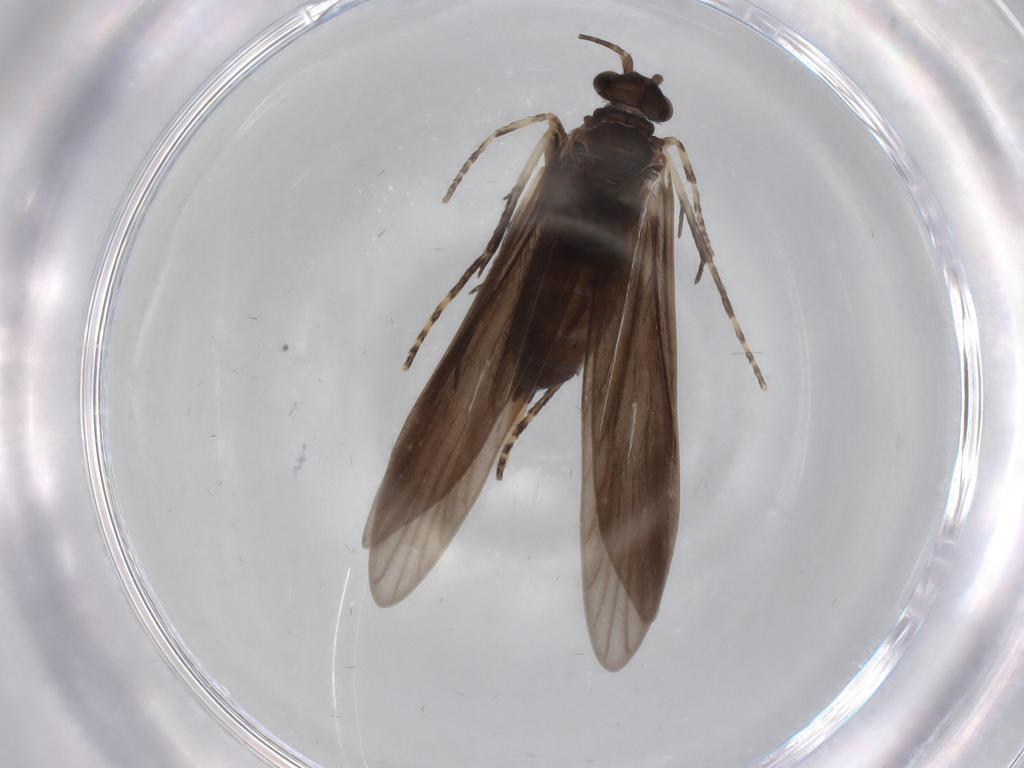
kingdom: Animalia
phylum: Arthropoda
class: Insecta
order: Trichoptera
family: Xiphocentronidae
